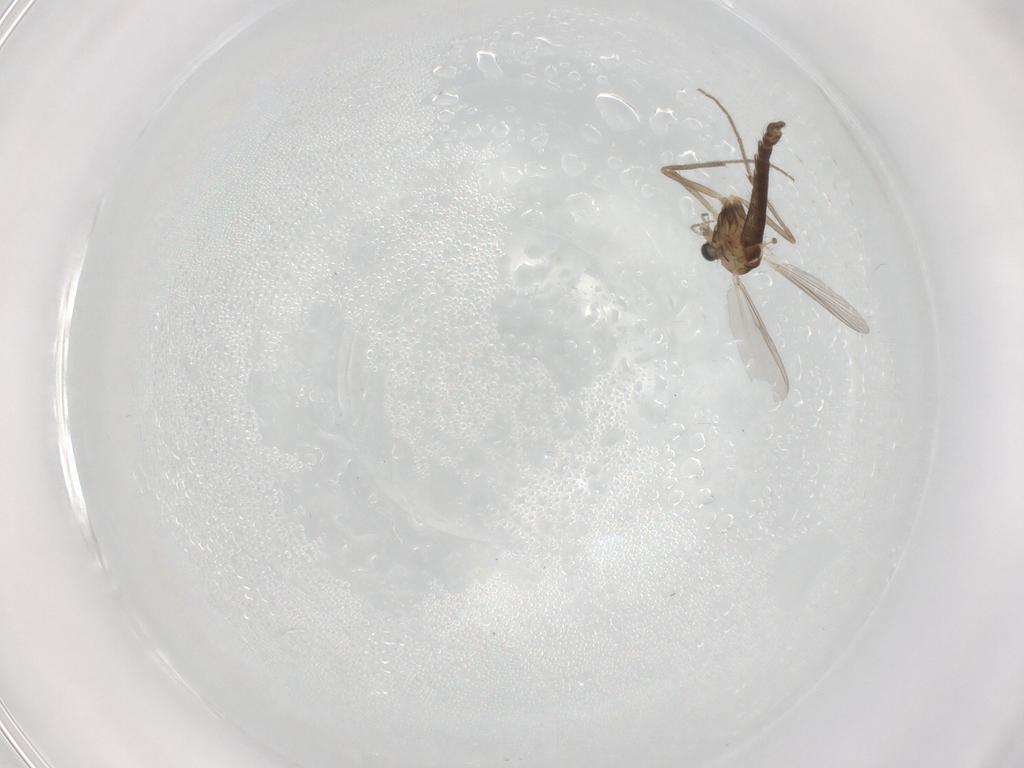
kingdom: Animalia
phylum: Arthropoda
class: Insecta
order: Diptera
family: Chironomidae
